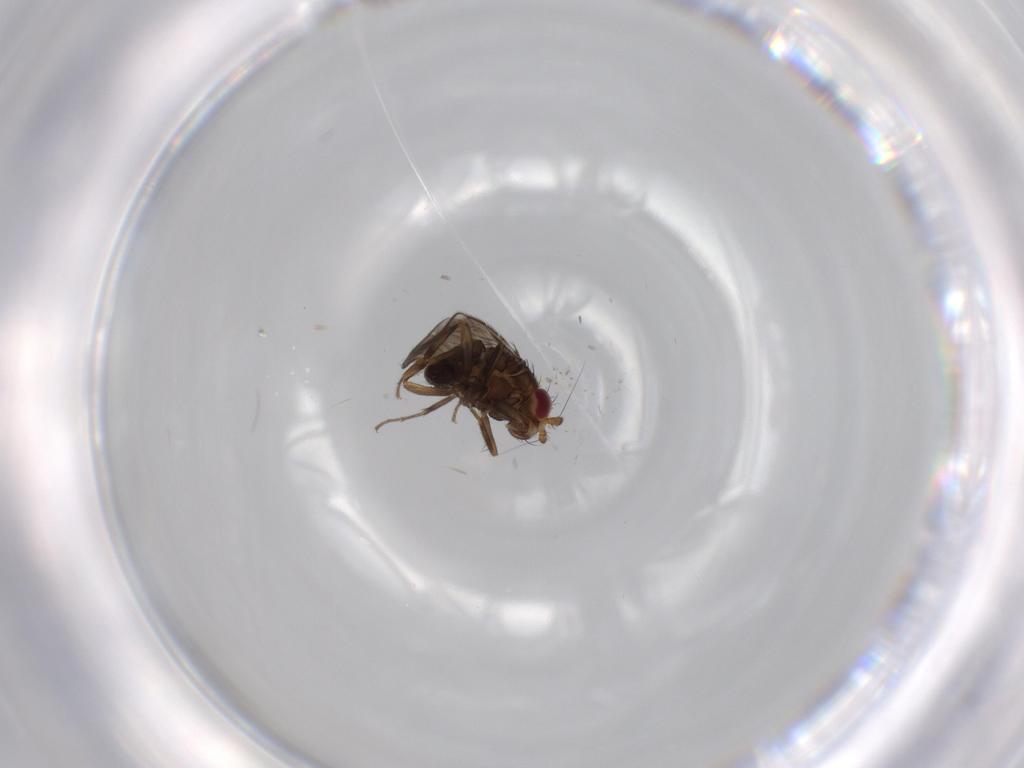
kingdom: Animalia
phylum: Arthropoda
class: Insecta
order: Diptera
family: Sphaeroceridae
